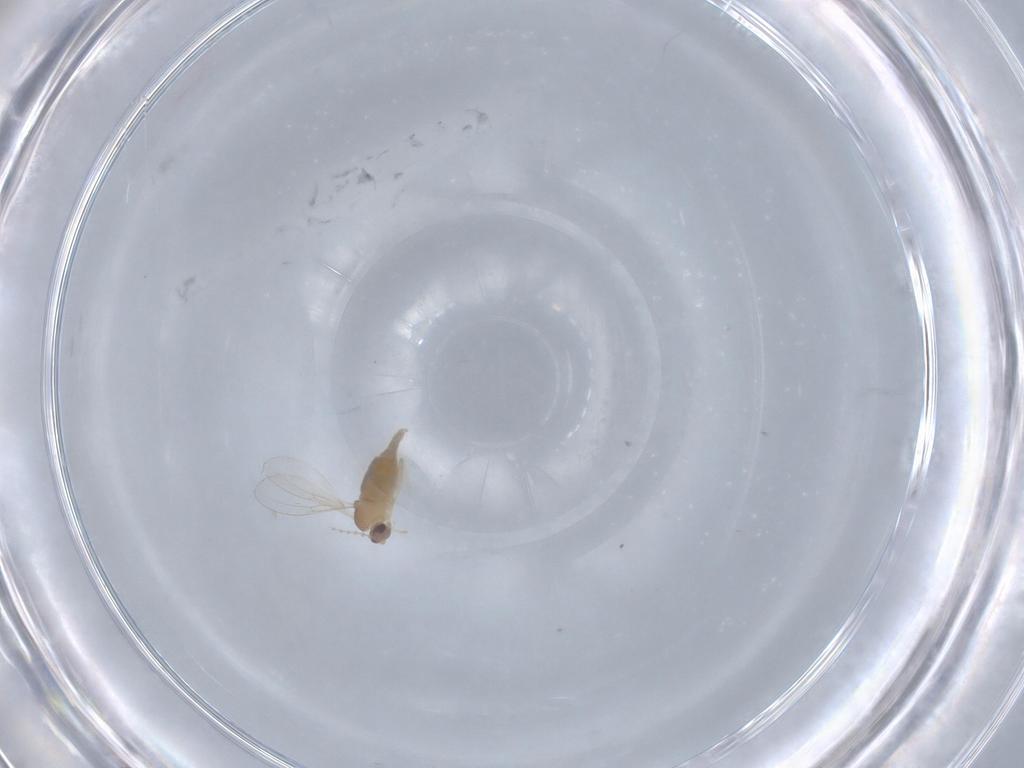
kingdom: Animalia
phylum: Arthropoda
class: Insecta
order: Diptera
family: Cecidomyiidae
